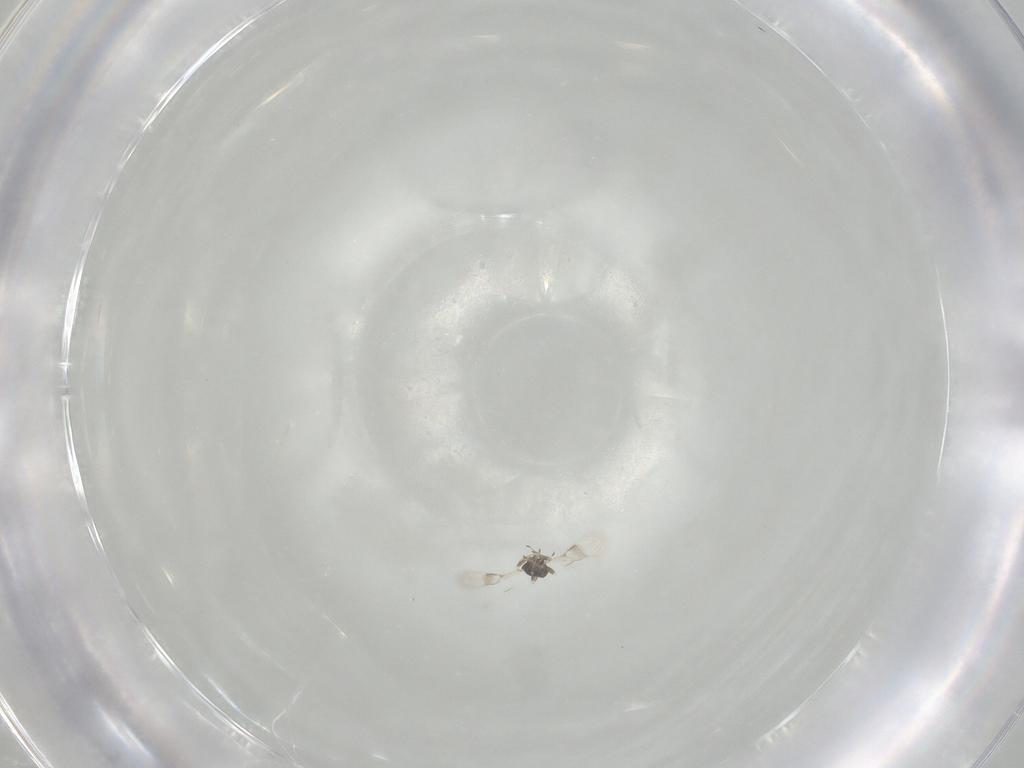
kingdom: Animalia
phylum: Arthropoda
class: Insecta
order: Hymenoptera
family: Azotidae
